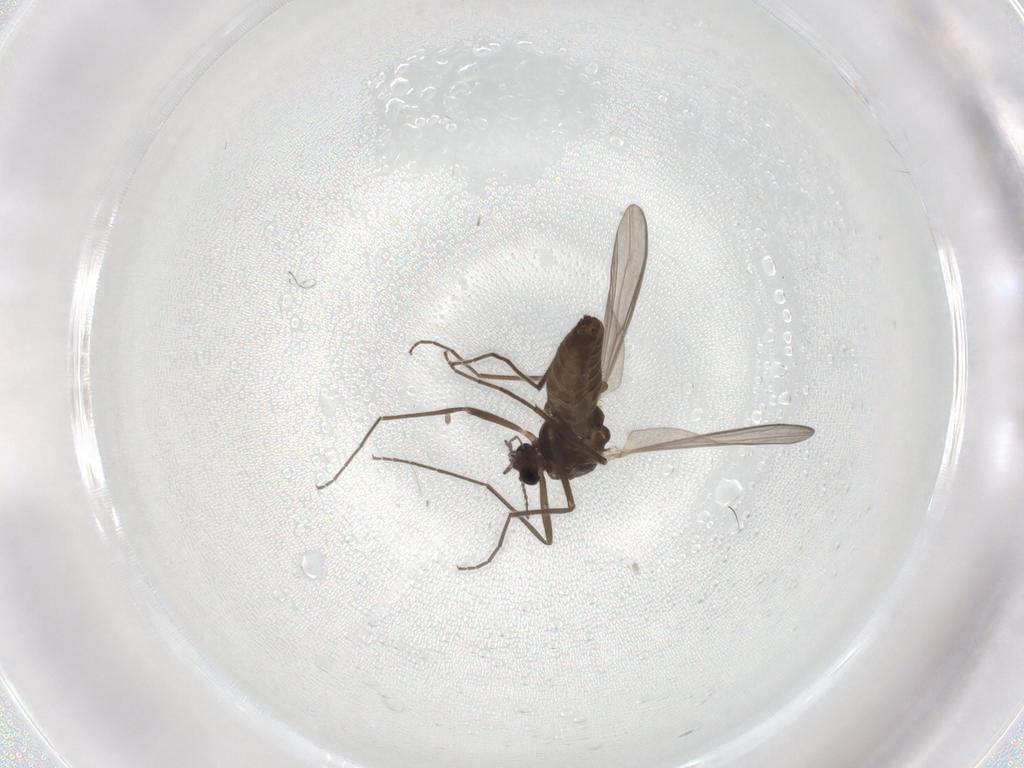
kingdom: Animalia
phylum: Arthropoda
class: Insecta
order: Diptera
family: Chironomidae
